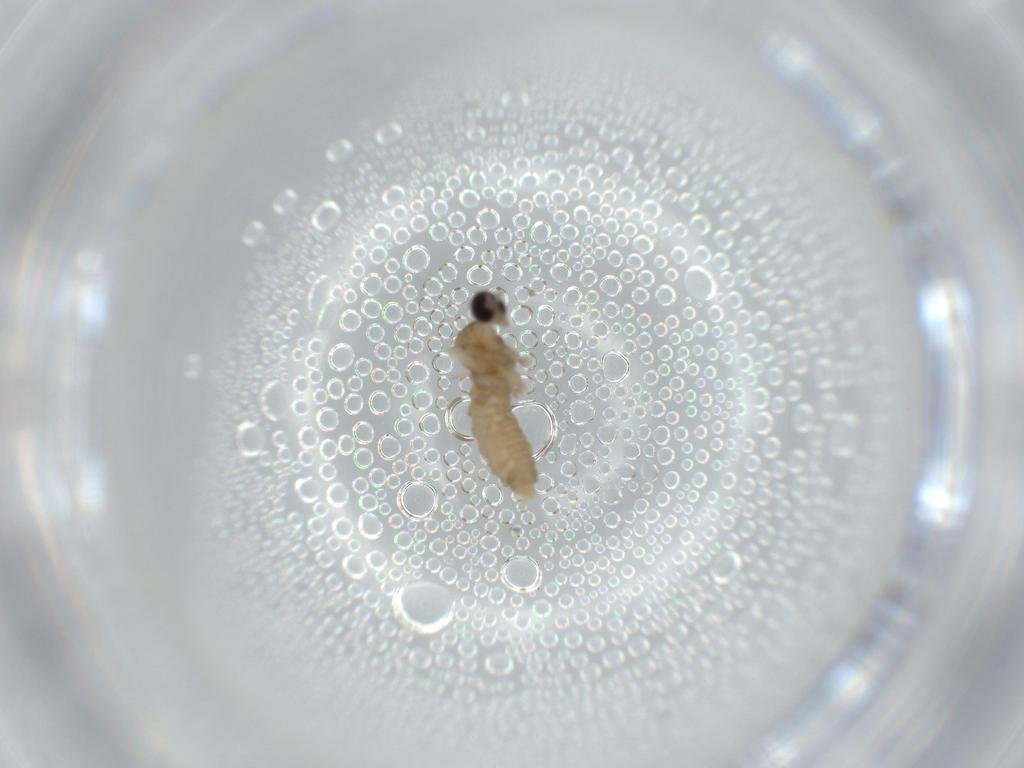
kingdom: Animalia
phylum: Arthropoda
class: Insecta
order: Diptera
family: Cecidomyiidae
